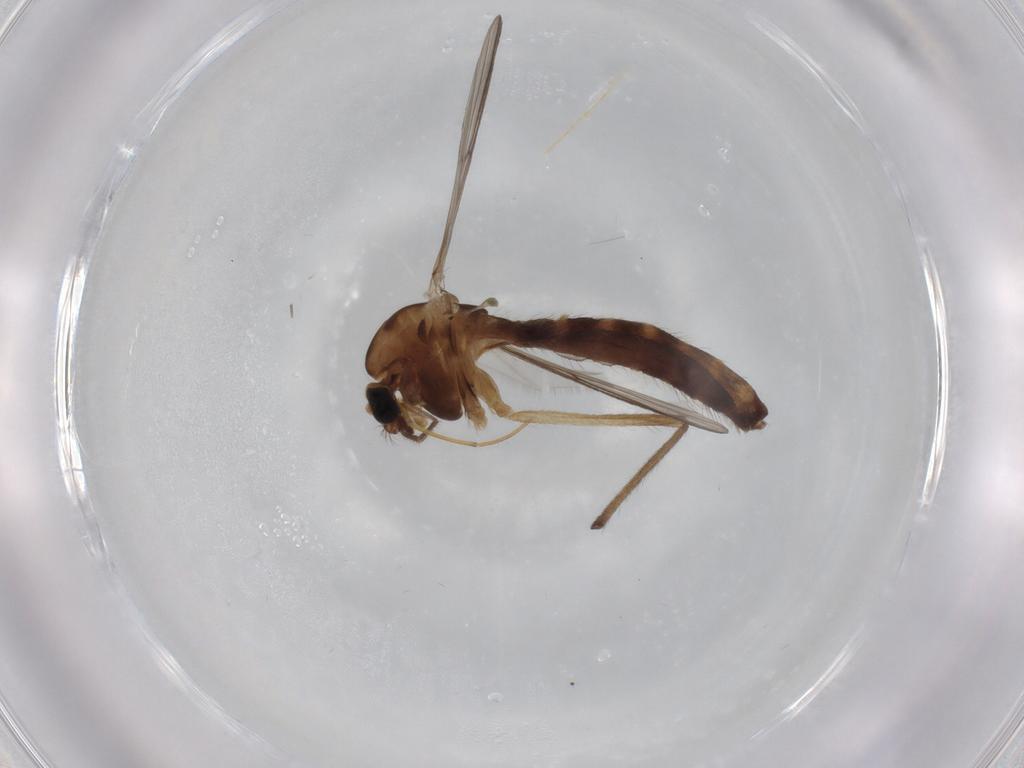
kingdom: Animalia
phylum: Arthropoda
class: Insecta
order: Diptera
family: Chironomidae
